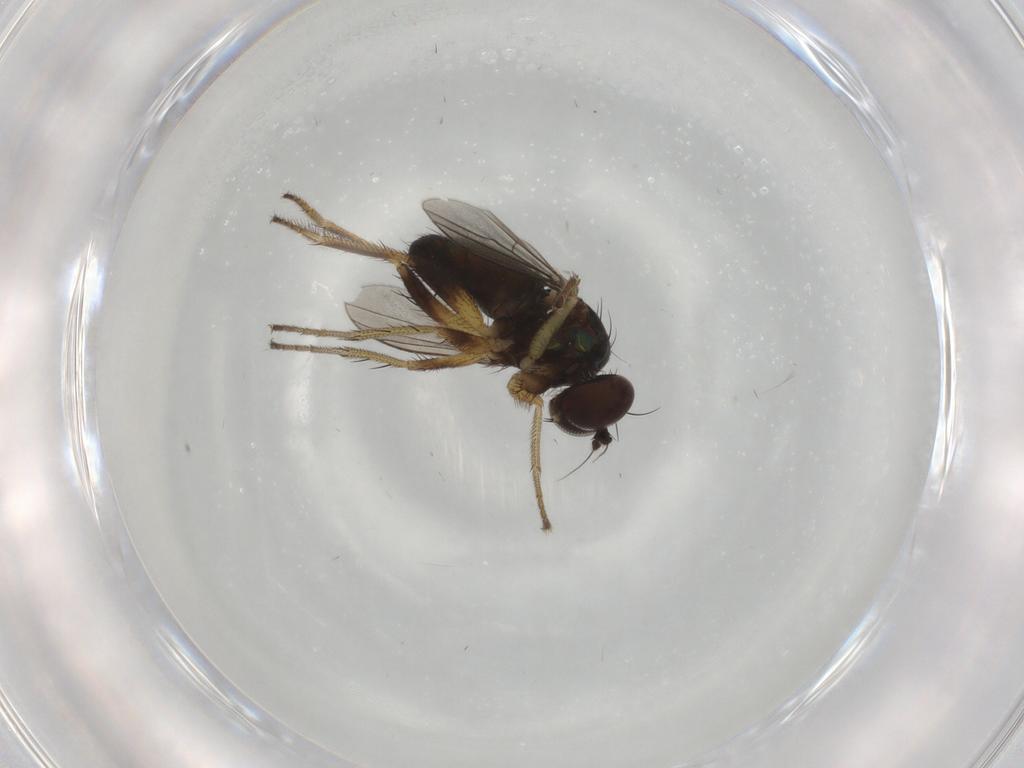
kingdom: Animalia
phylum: Arthropoda
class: Insecta
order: Diptera
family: Dolichopodidae
